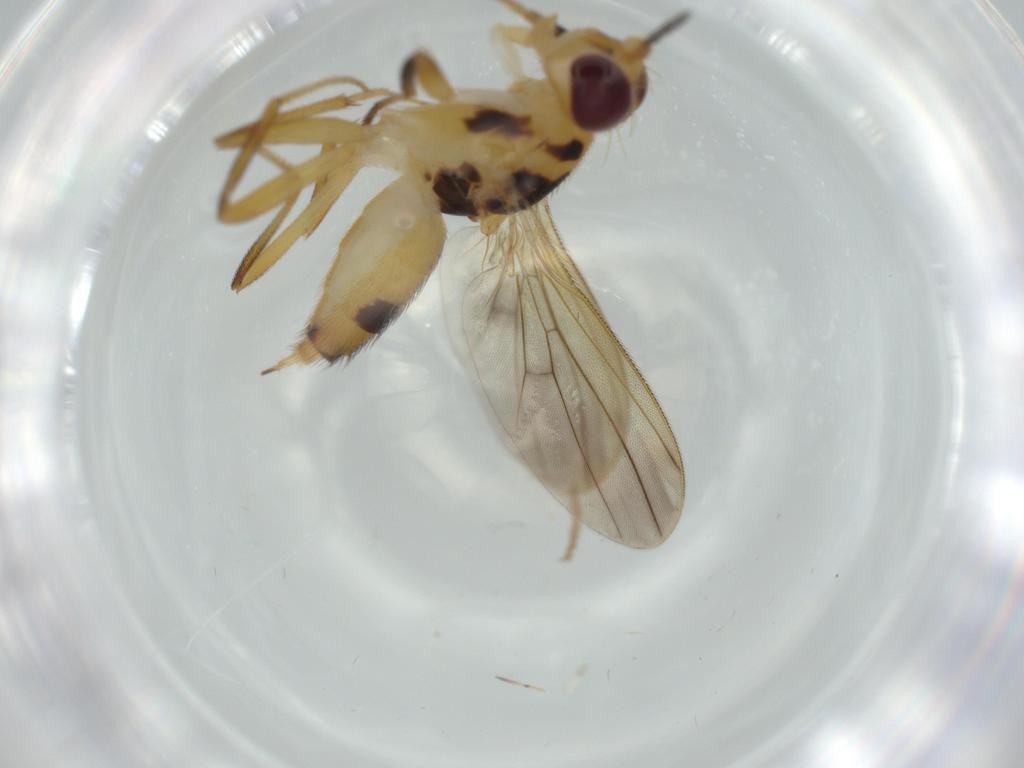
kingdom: Animalia
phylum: Arthropoda
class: Insecta
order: Diptera
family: Clusiidae
